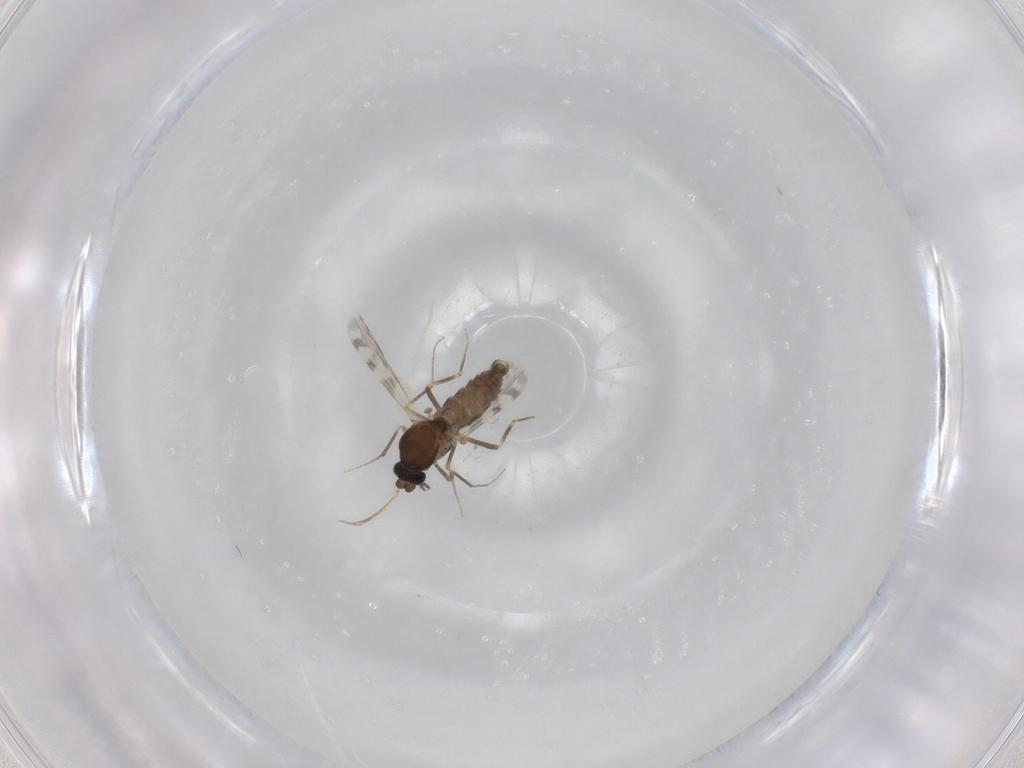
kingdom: Animalia
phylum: Arthropoda
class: Insecta
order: Diptera
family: Ceratopogonidae
